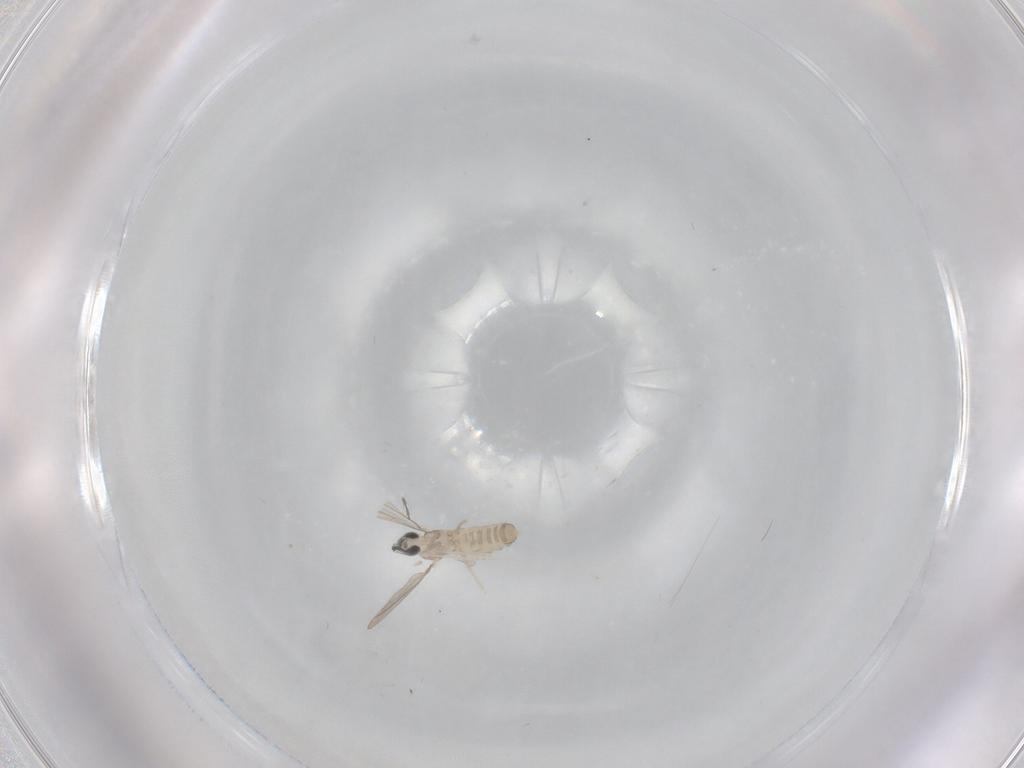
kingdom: Animalia
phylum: Arthropoda
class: Insecta
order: Diptera
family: Cecidomyiidae
